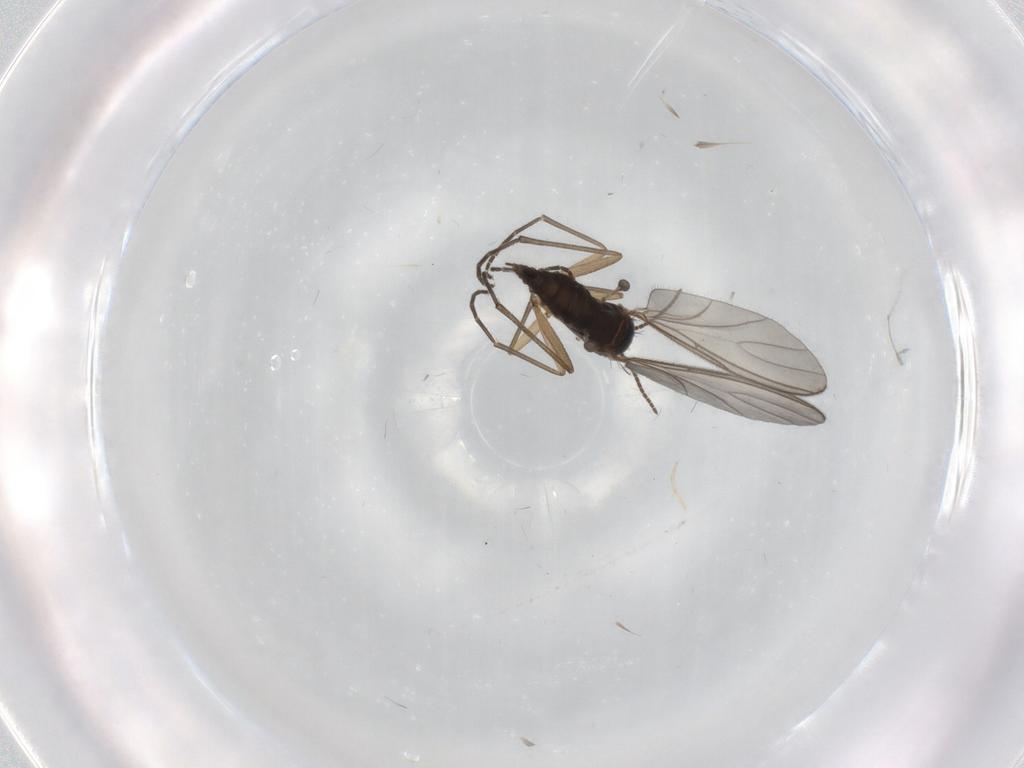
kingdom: Animalia
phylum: Arthropoda
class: Insecta
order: Diptera
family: Sciaridae
